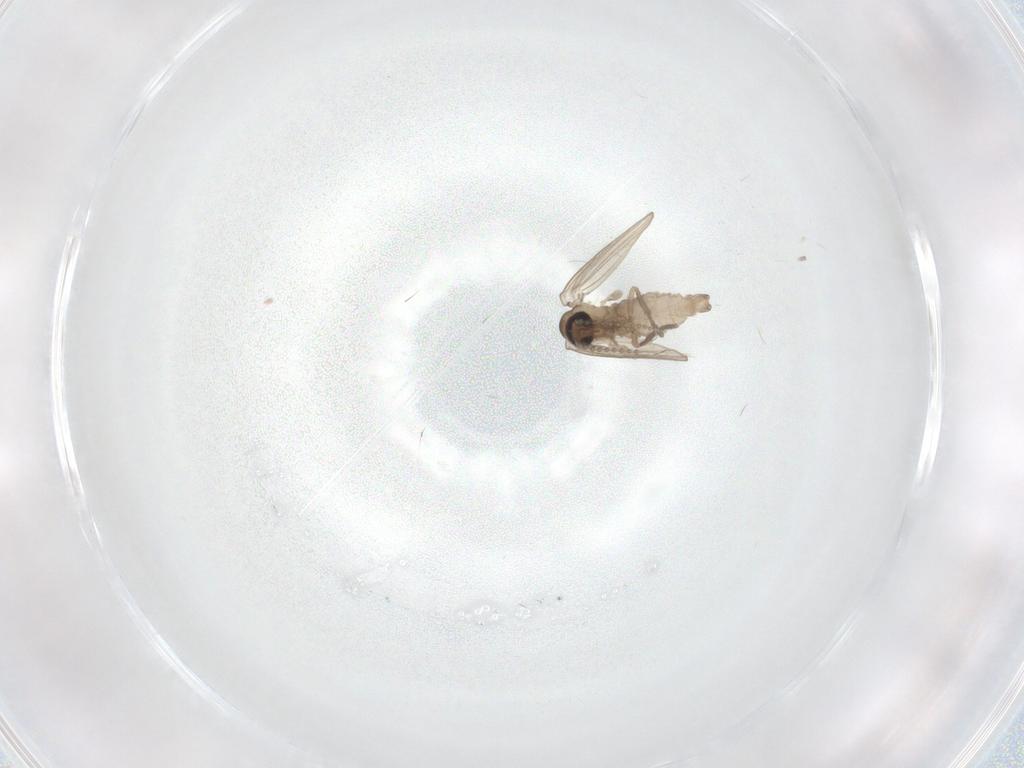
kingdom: Animalia
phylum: Arthropoda
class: Insecta
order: Diptera
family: Psychodidae
